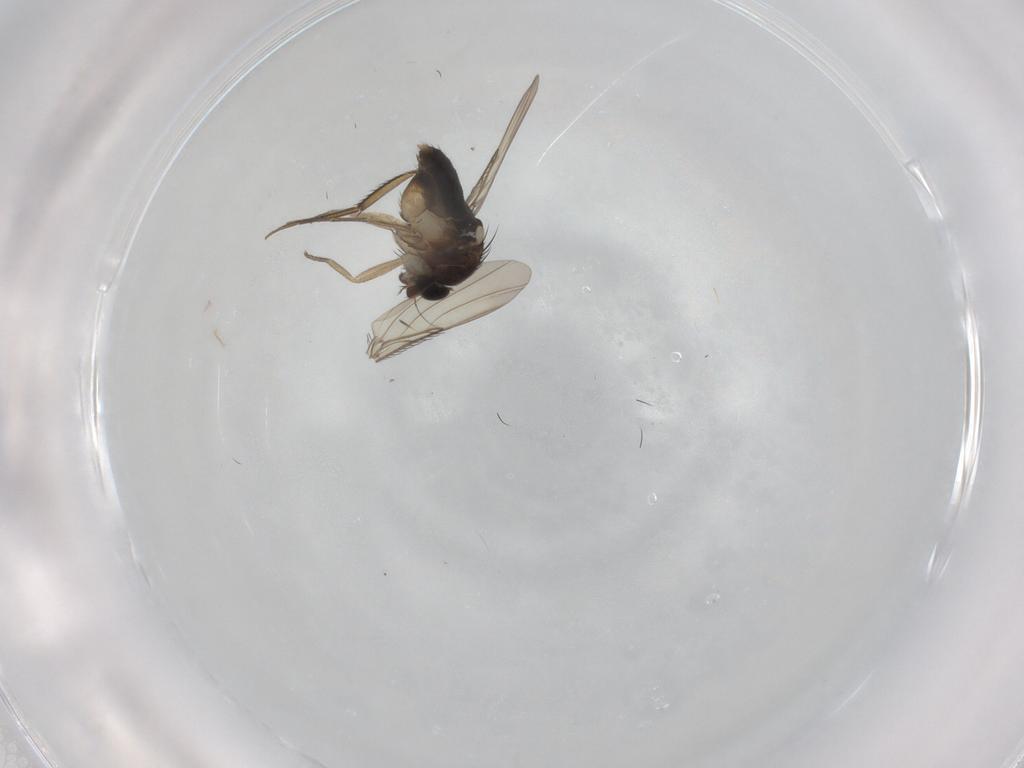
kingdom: Animalia
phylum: Arthropoda
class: Insecta
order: Diptera
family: Phoridae
